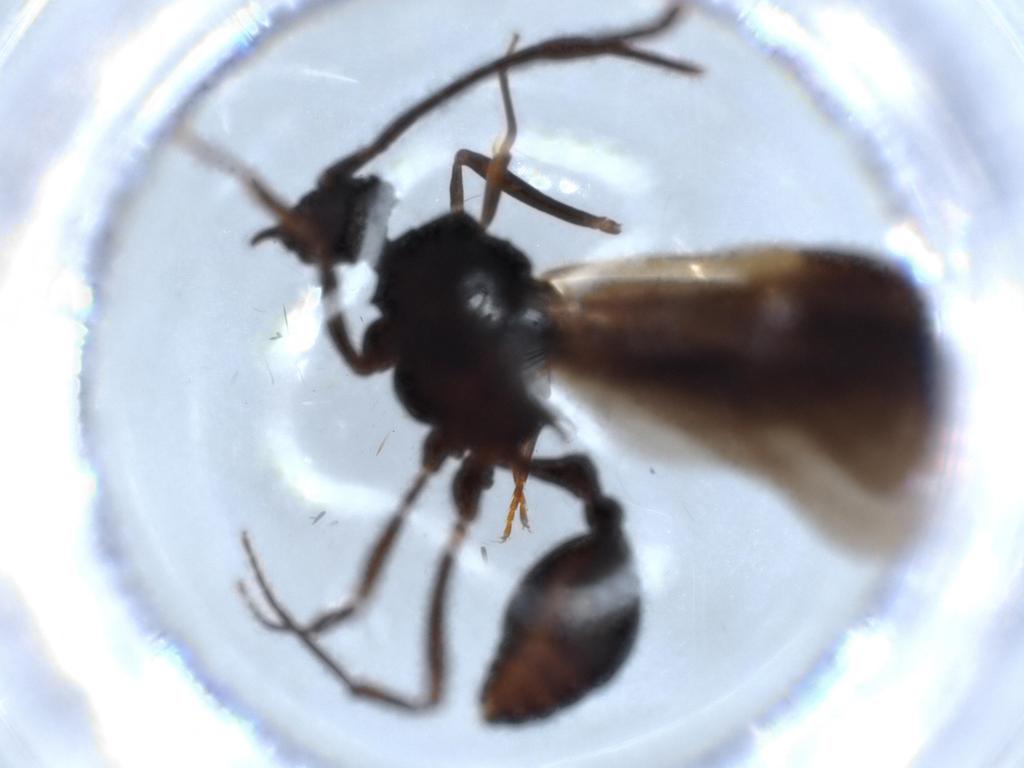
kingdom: Animalia
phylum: Arthropoda
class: Insecta
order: Hymenoptera
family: Formicidae
